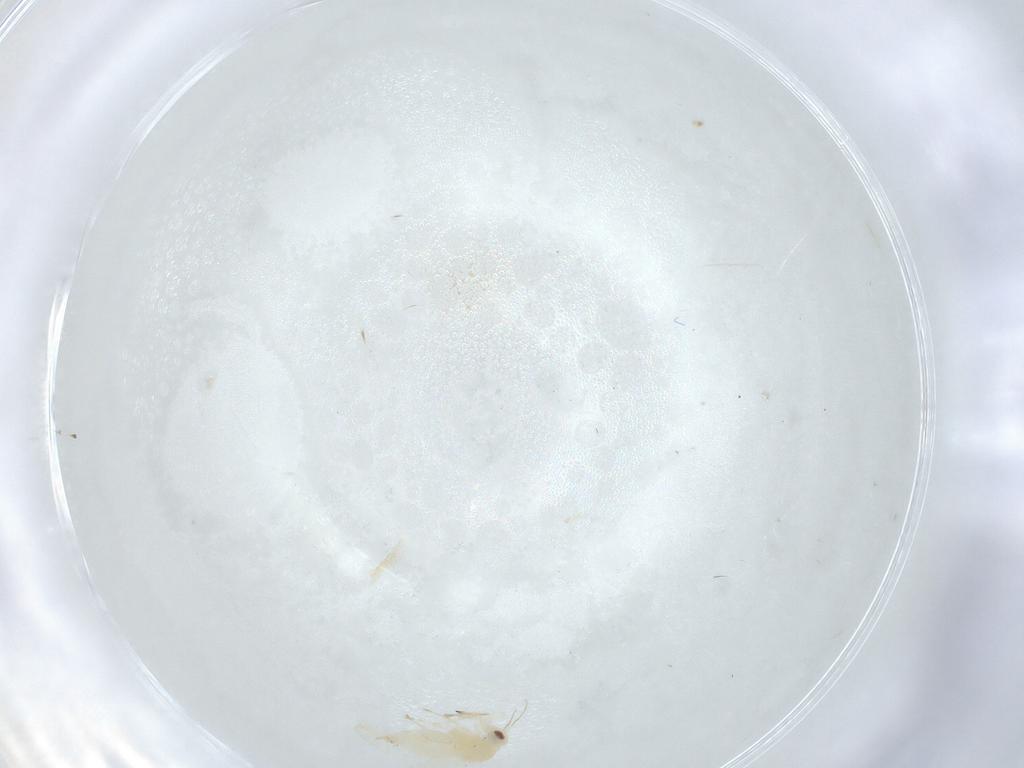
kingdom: Animalia
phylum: Arthropoda
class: Insecta
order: Hemiptera
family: Aleyrodidae
